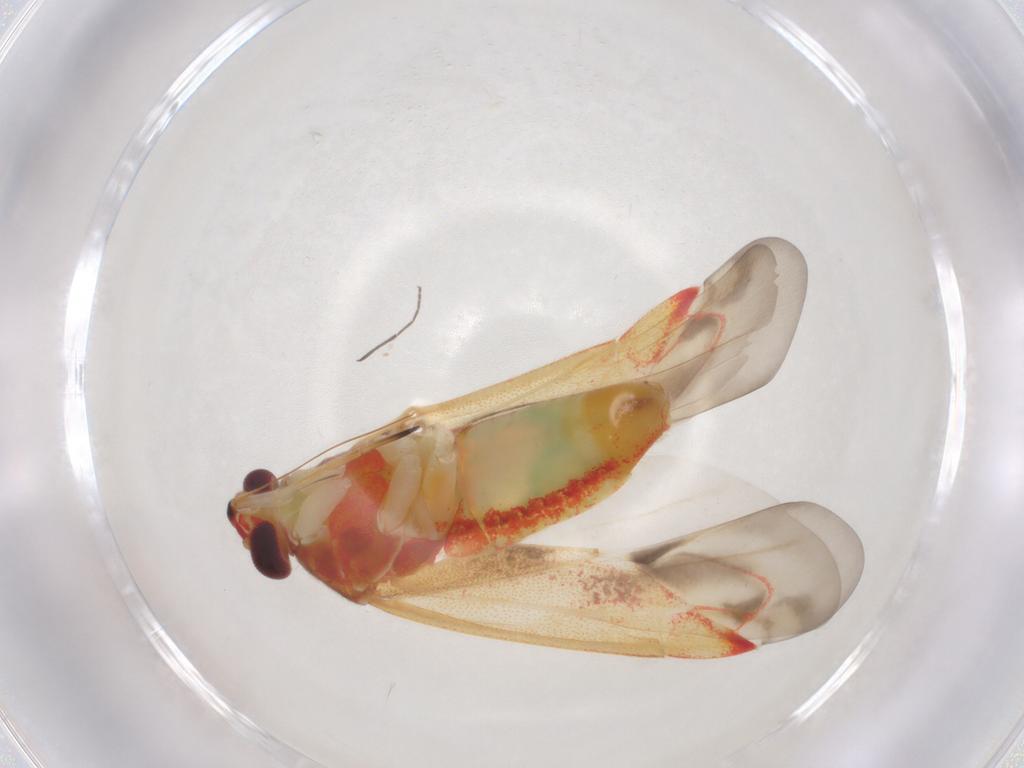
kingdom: Animalia
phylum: Arthropoda
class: Insecta
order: Hemiptera
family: Miridae
